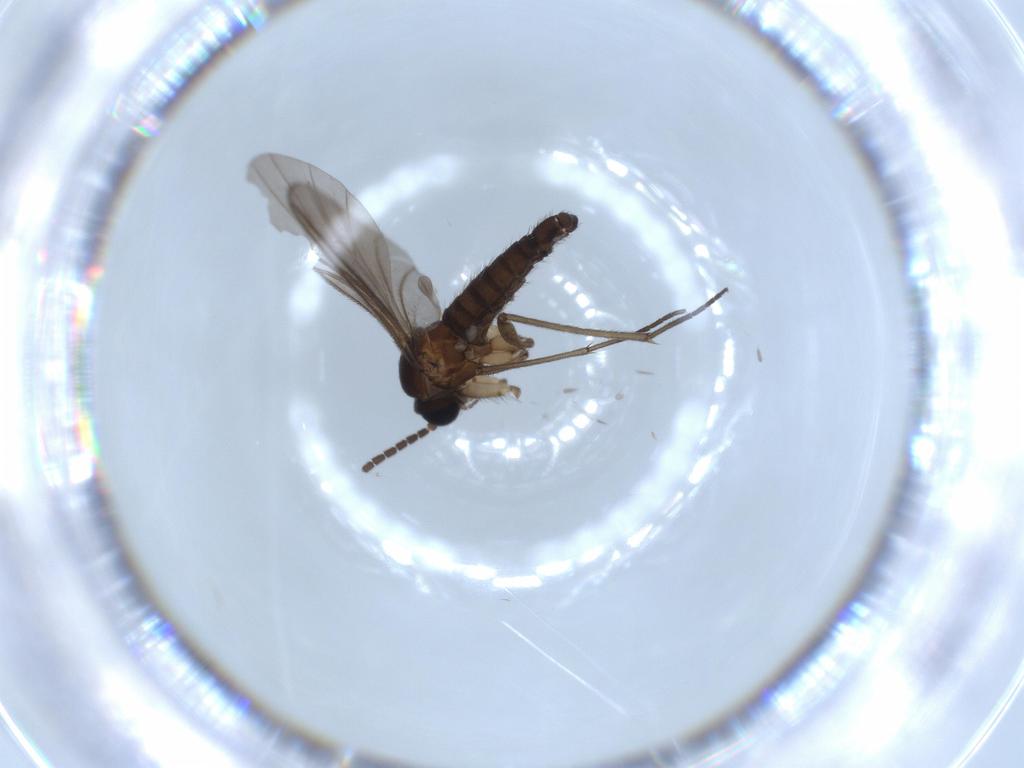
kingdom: Animalia
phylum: Arthropoda
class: Insecta
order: Diptera
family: Sciaridae
